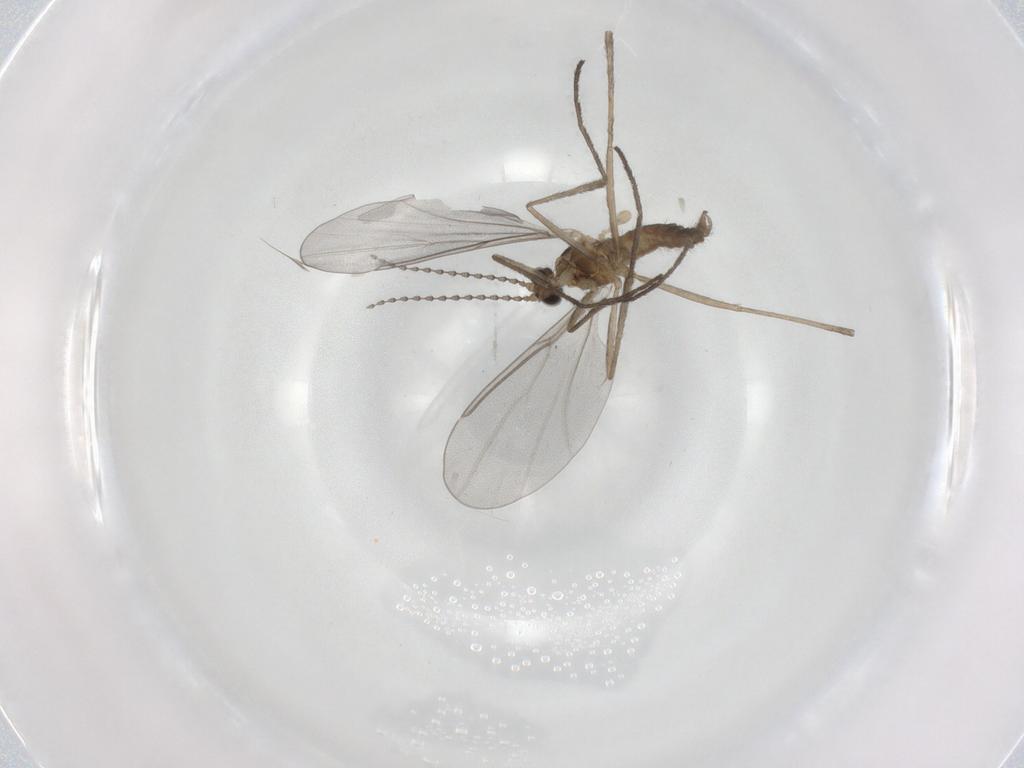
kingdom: Animalia
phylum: Arthropoda
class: Insecta
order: Diptera
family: Cecidomyiidae
